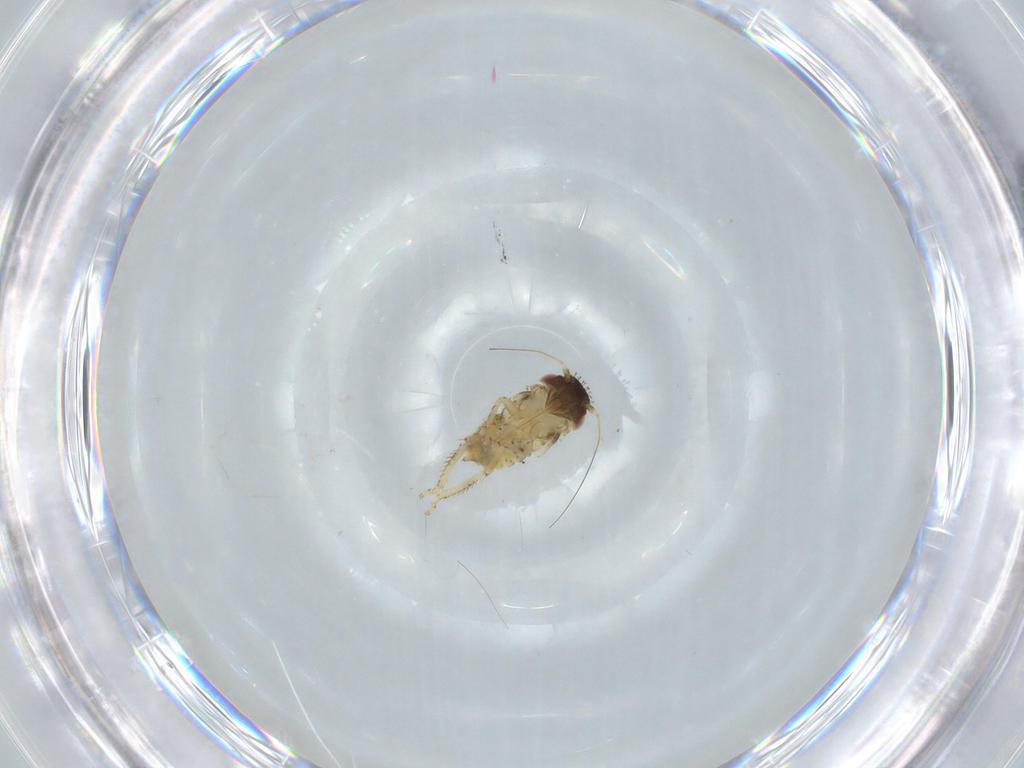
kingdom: Animalia
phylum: Arthropoda
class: Insecta
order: Hemiptera
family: Cicadellidae
